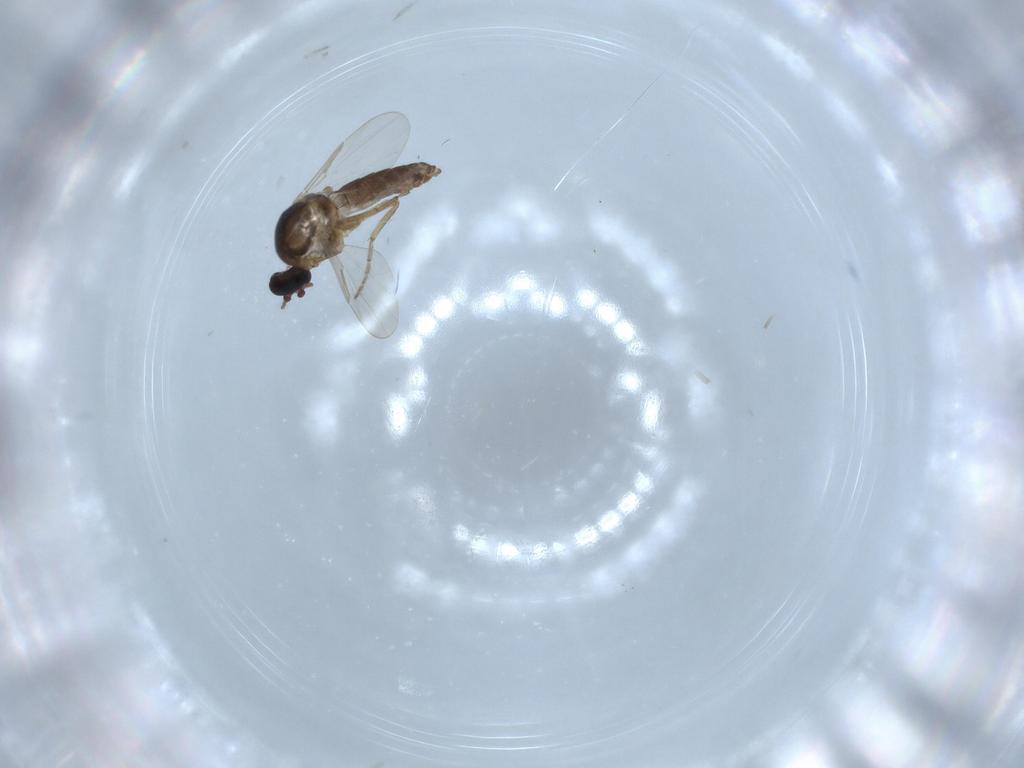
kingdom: Animalia
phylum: Arthropoda
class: Insecta
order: Diptera
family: Ceratopogonidae
